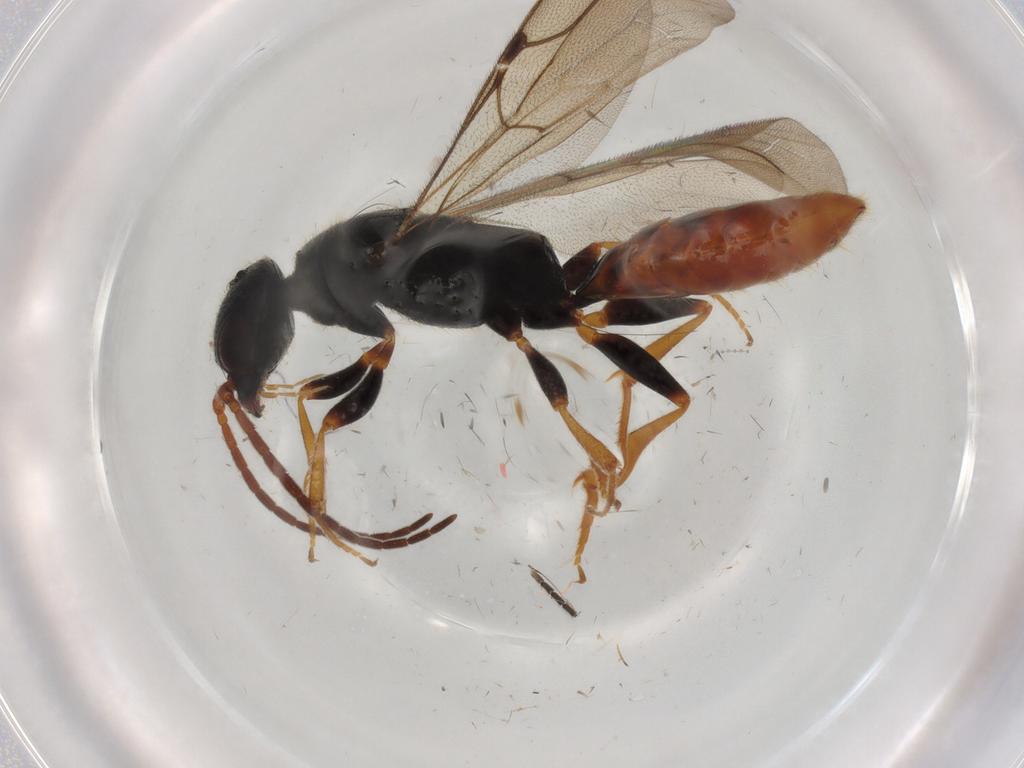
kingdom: Animalia
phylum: Arthropoda
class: Insecta
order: Hymenoptera
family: Bethylidae
